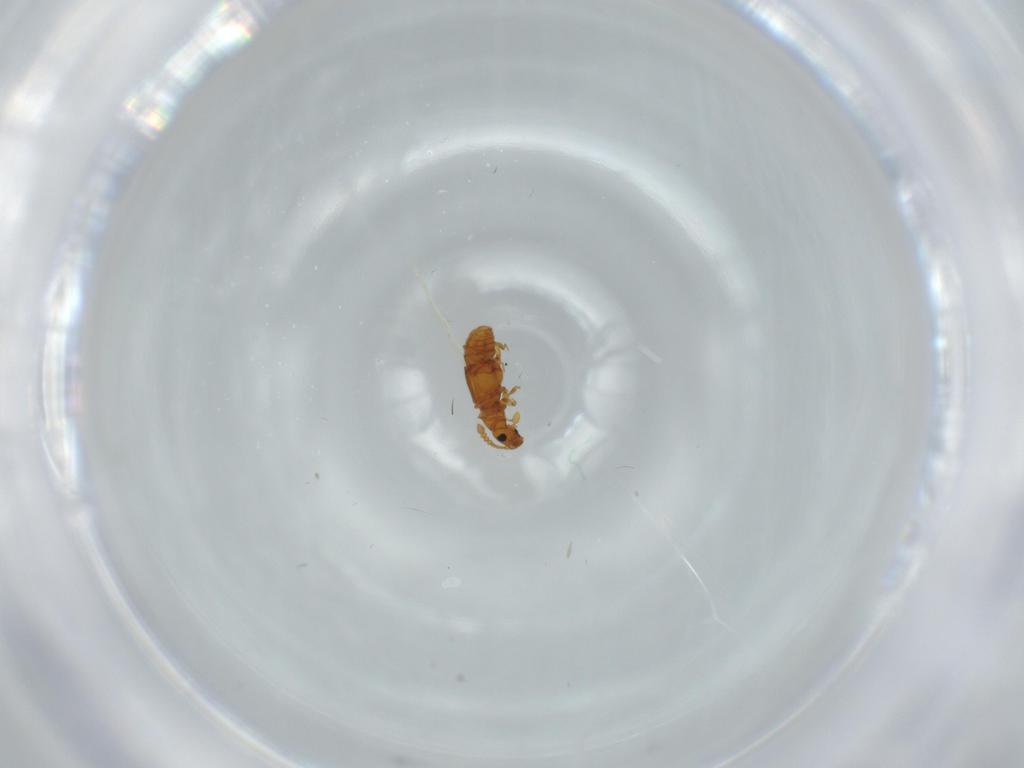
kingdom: Animalia
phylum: Arthropoda
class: Insecta
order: Coleoptera
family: Staphylinidae
